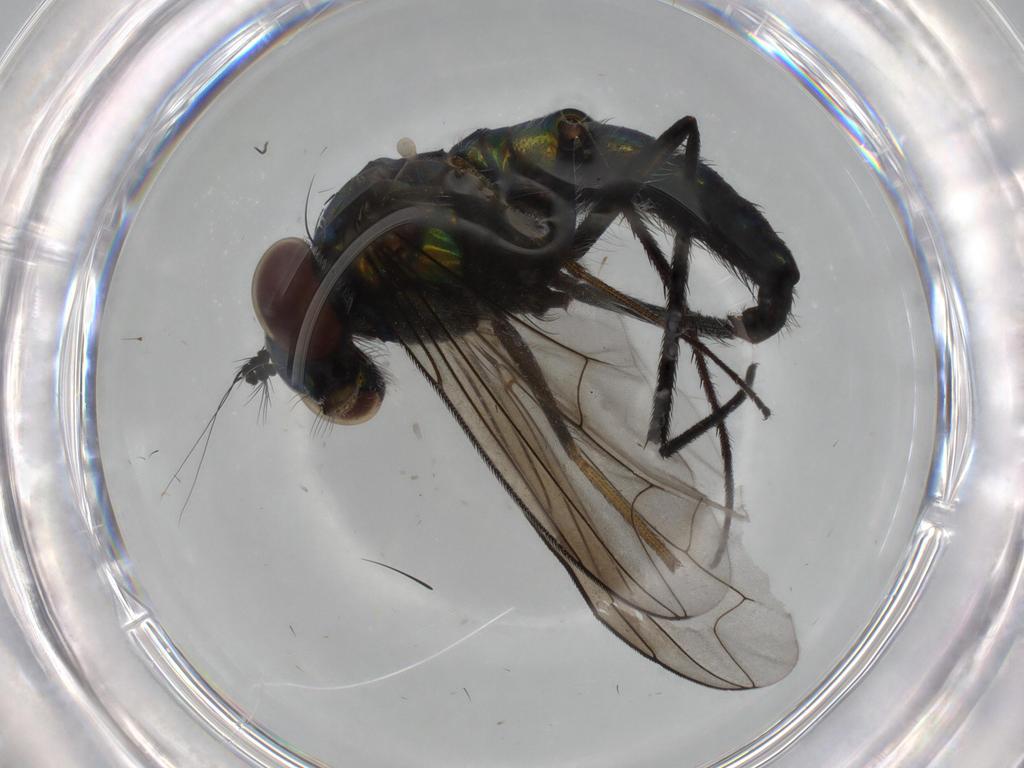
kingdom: Animalia
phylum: Arthropoda
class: Insecta
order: Diptera
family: Dolichopodidae
